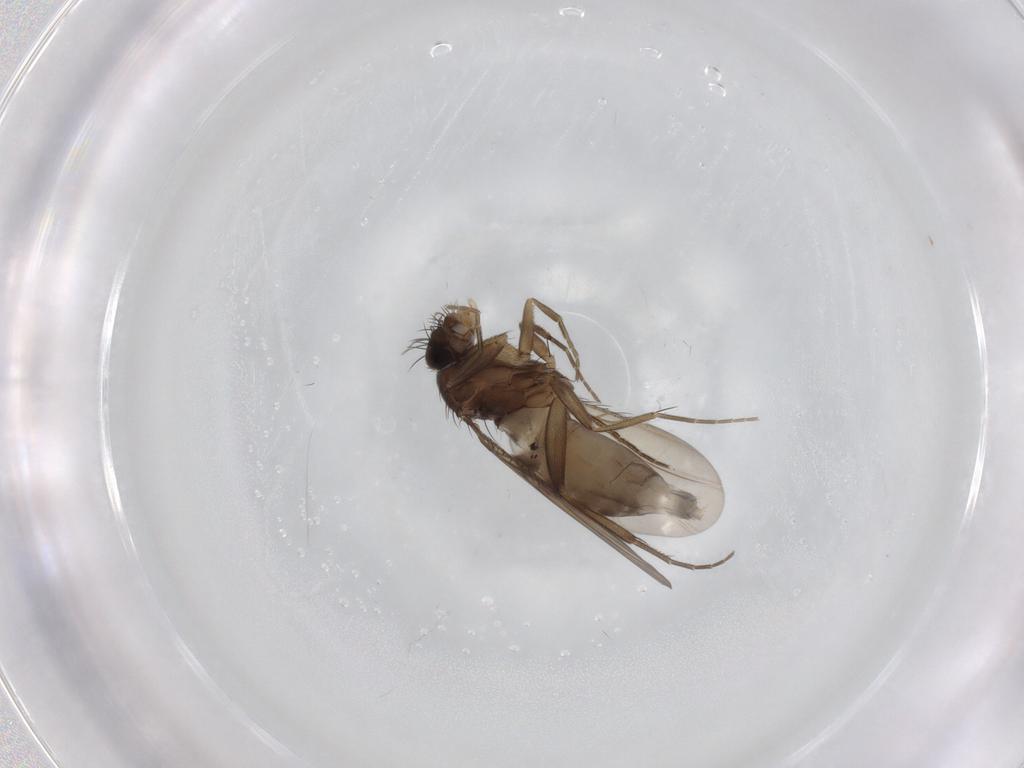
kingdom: Animalia
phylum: Arthropoda
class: Insecta
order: Diptera
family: Phoridae
